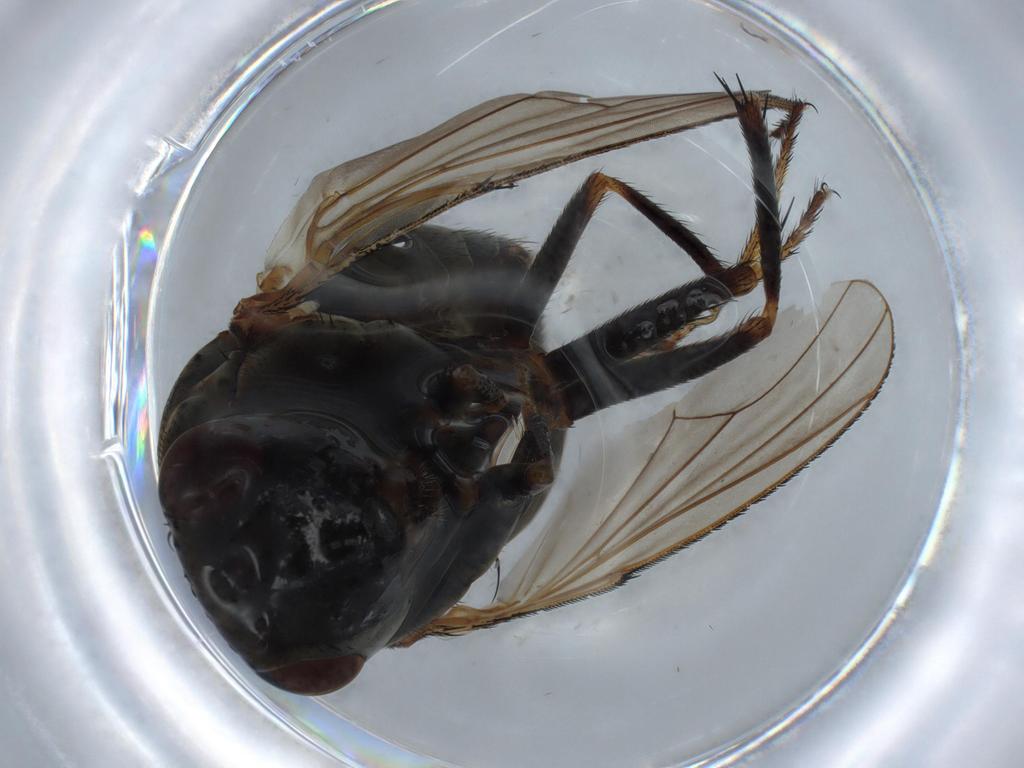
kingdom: Animalia
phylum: Arthropoda
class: Insecta
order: Diptera
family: Ephydridae
